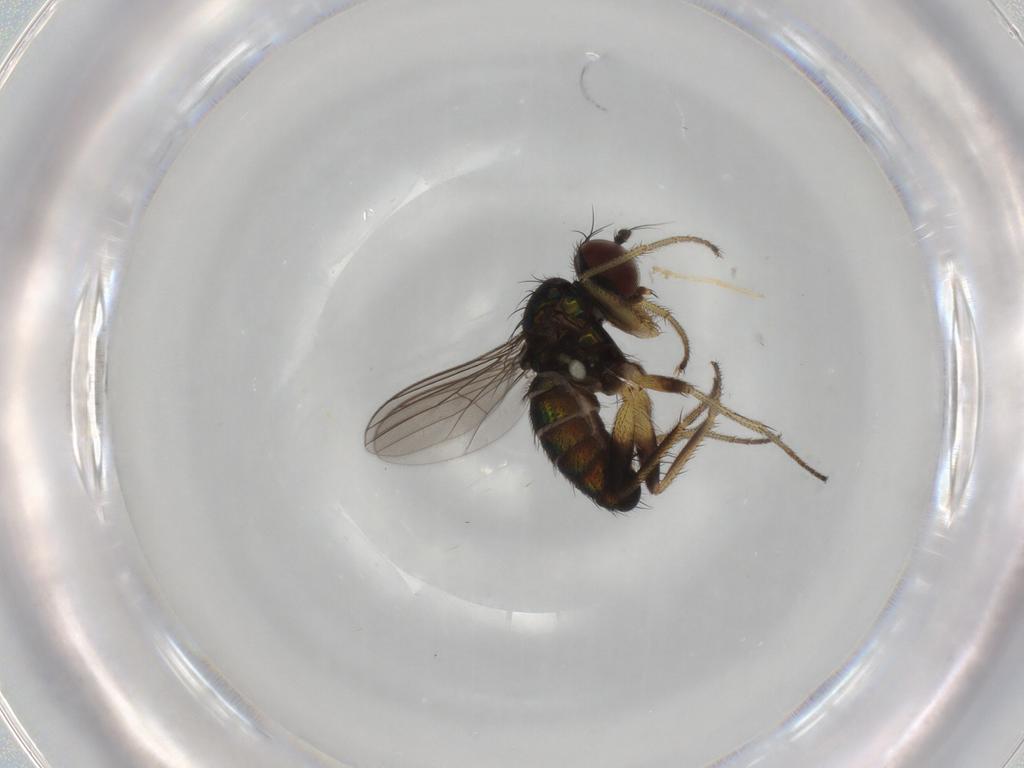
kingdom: Animalia
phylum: Arthropoda
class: Insecta
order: Diptera
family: Dolichopodidae
